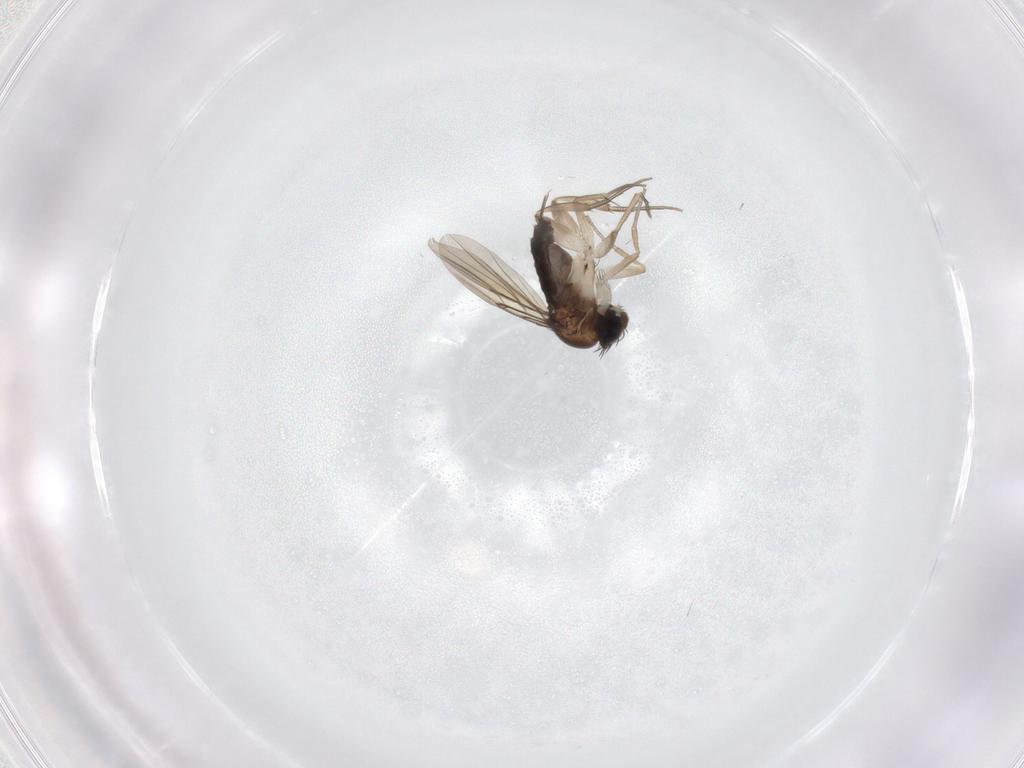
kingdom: Animalia
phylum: Arthropoda
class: Insecta
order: Diptera
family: Phoridae
